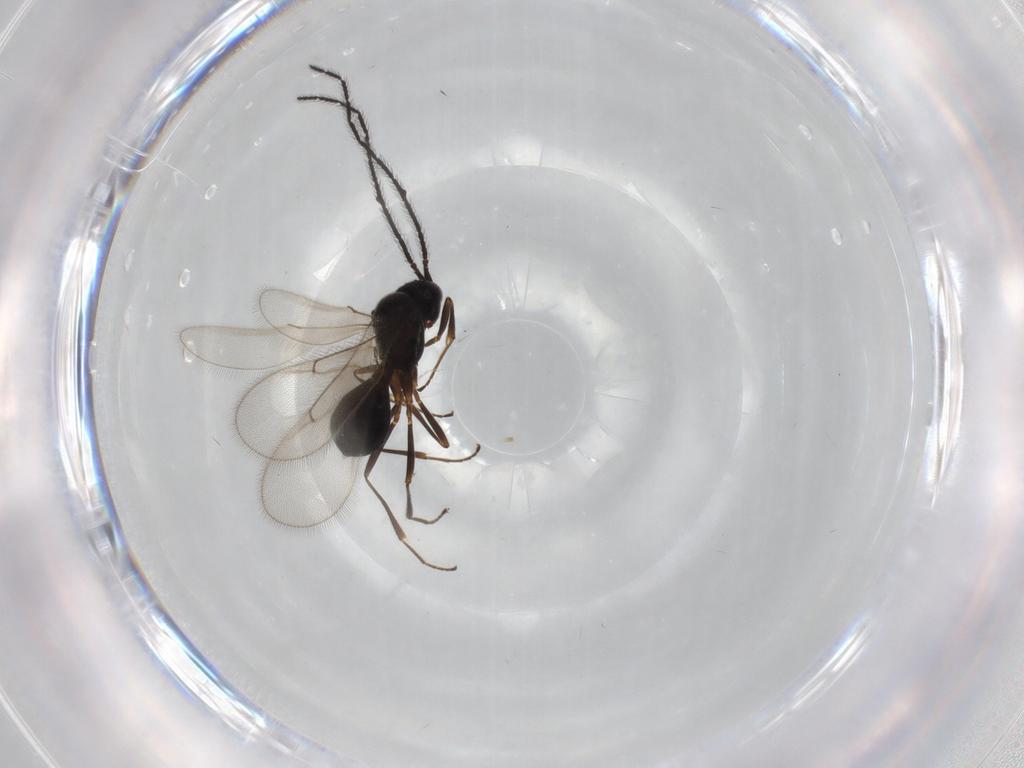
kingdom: Animalia
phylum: Arthropoda
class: Insecta
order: Hymenoptera
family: Scelionidae
